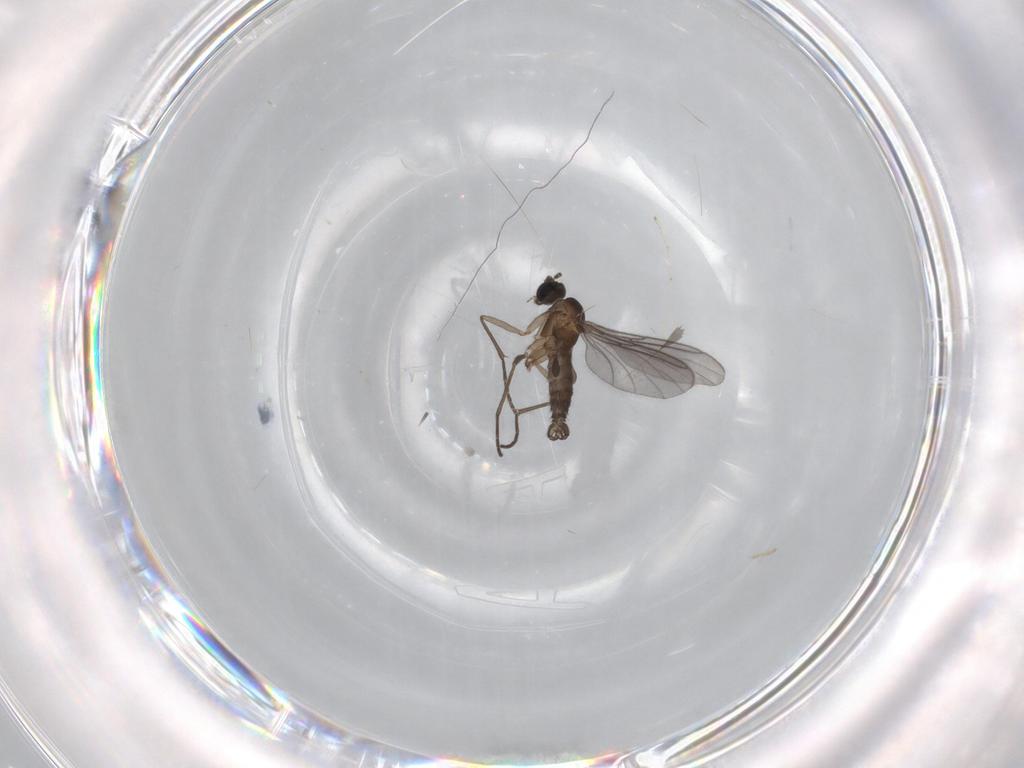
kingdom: Animalia
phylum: Arthropoda
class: Insecta
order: Diptera
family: Sciaridae
